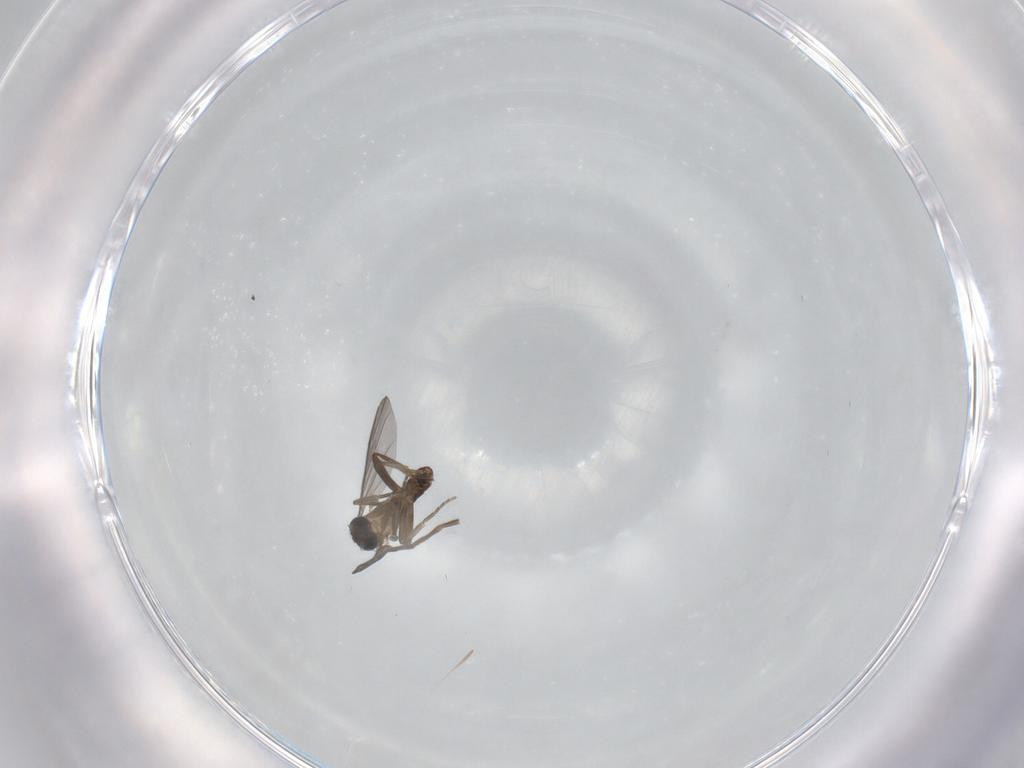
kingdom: Animalia
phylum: Arthropoda
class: Insecta
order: Diptera
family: Phoridae
